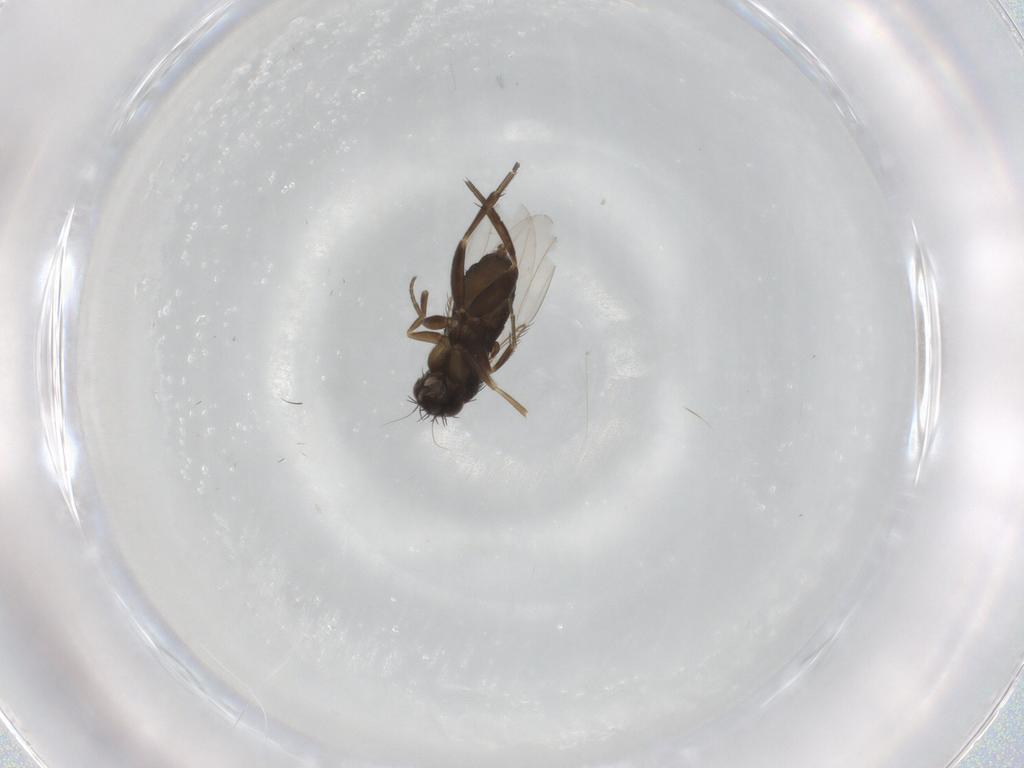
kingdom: Animalia
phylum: Arthropoda
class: Insecta
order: Diptera
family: Phoridae
